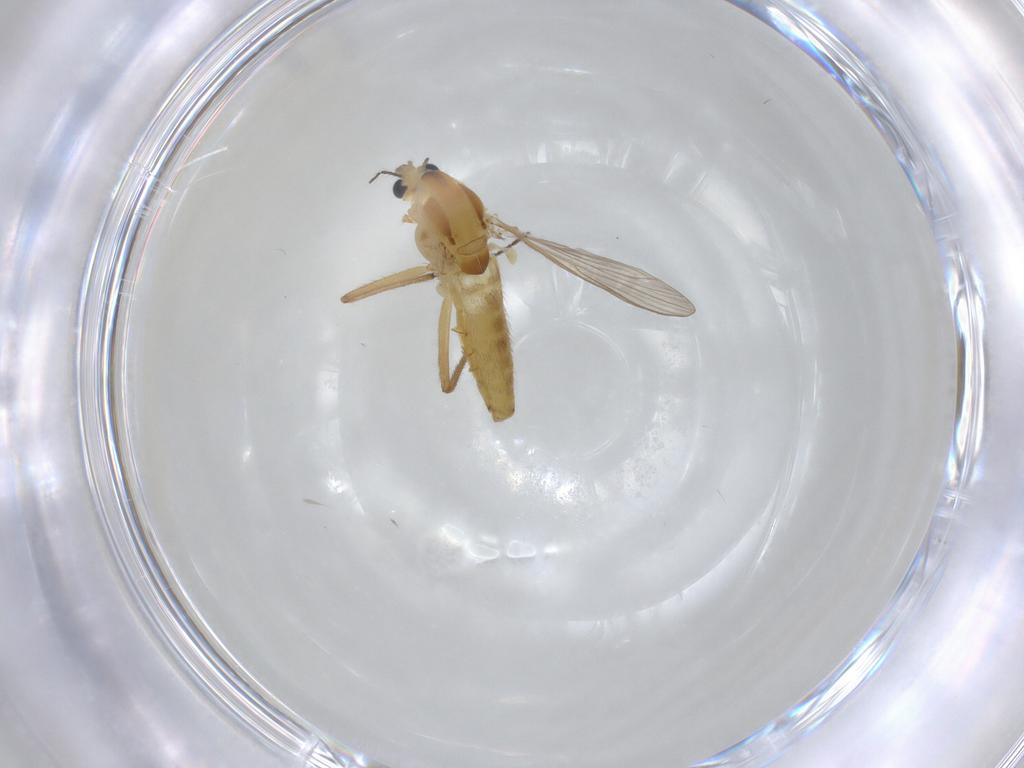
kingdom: Animalia
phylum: Arthropoda
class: Insecta
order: Diptera
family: Chironomidae
